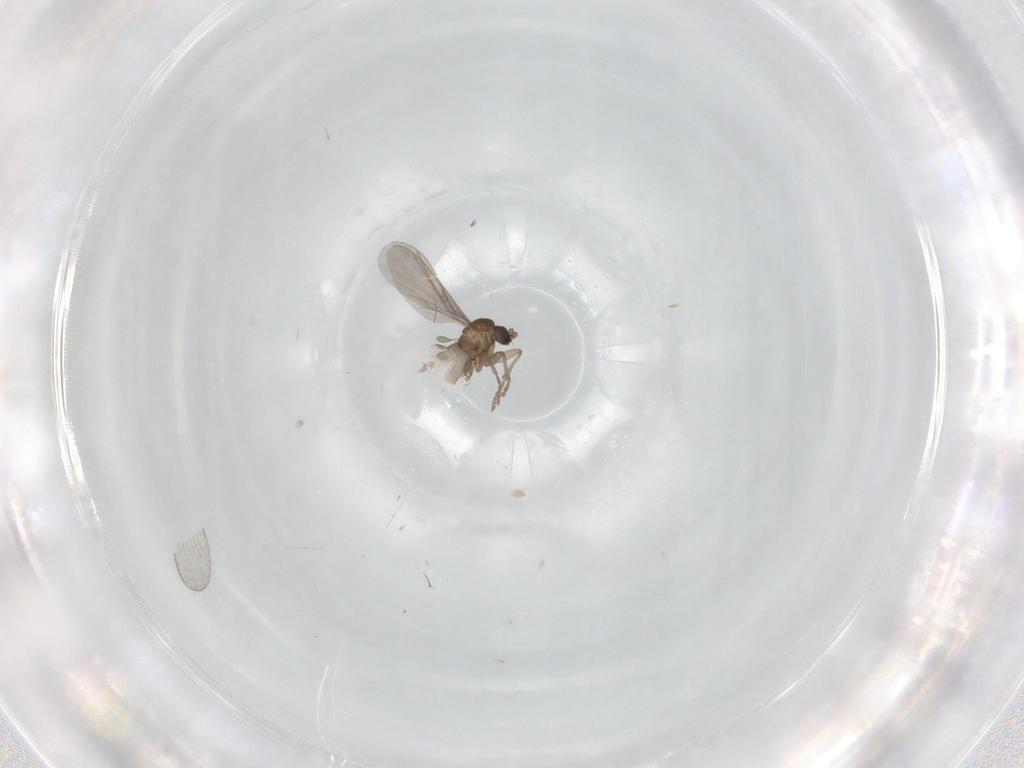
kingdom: Animalia
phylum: Arthropoda
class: Insecta
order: Diptera
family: Sciaridae
